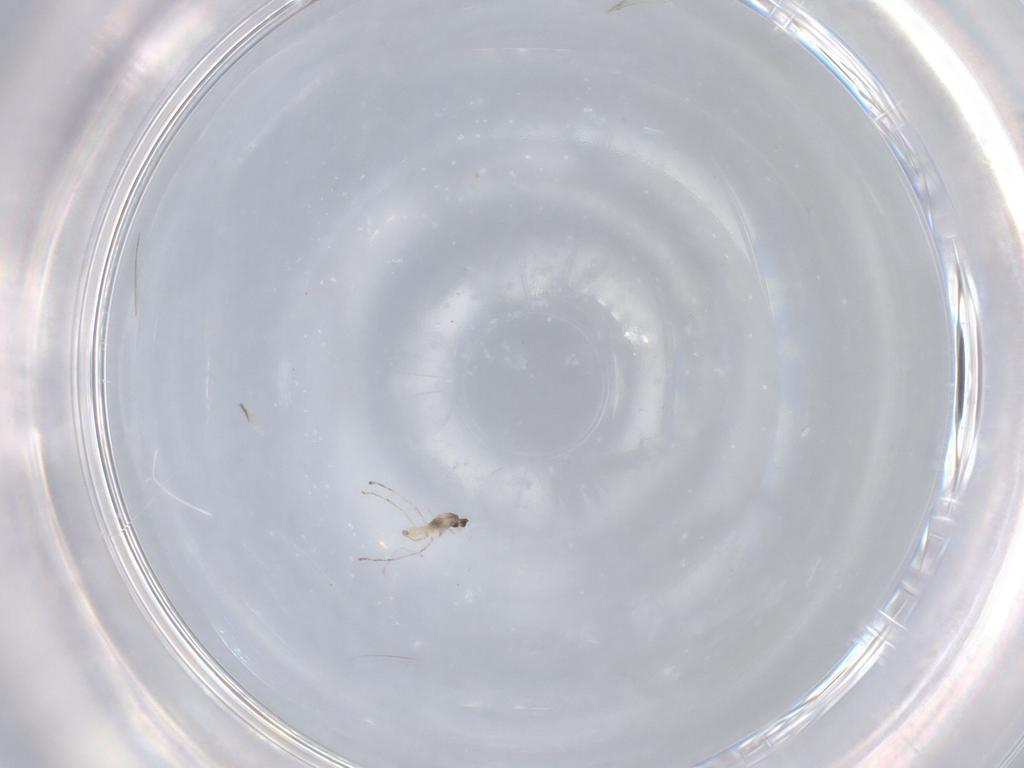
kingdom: Animalia
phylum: Arthropoda
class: Insecta
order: Diptera
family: Cecidomyiidae
